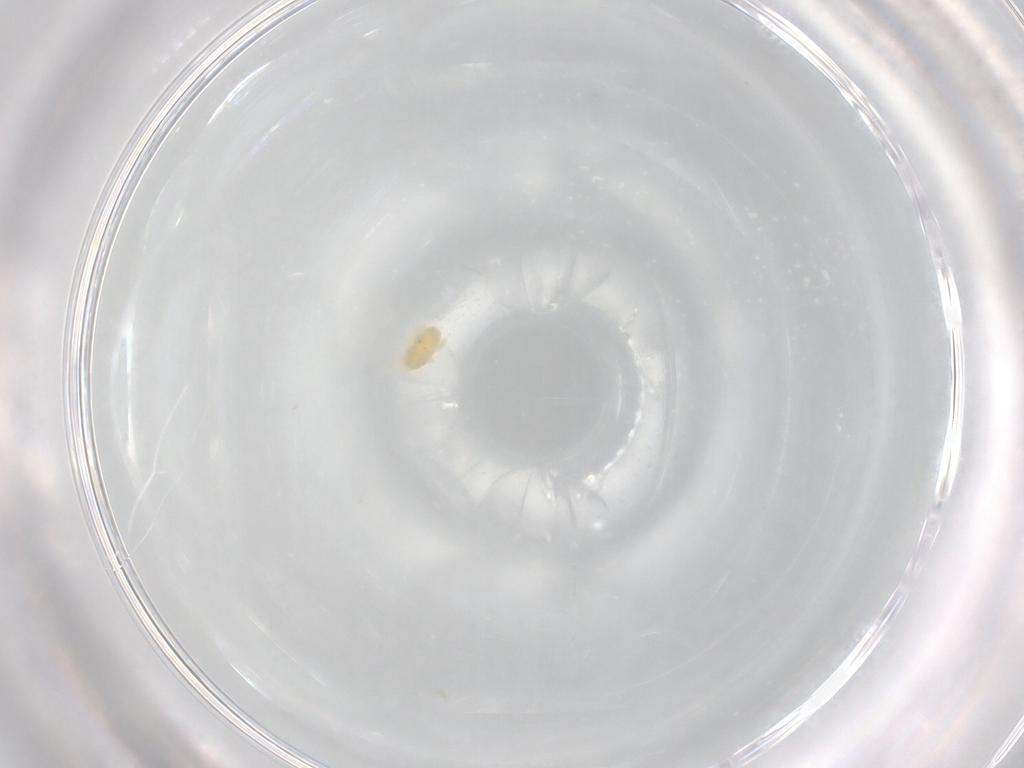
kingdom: Animalia
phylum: Arthropoda
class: Arachnida
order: Trombidiformes
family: Eupodidae
